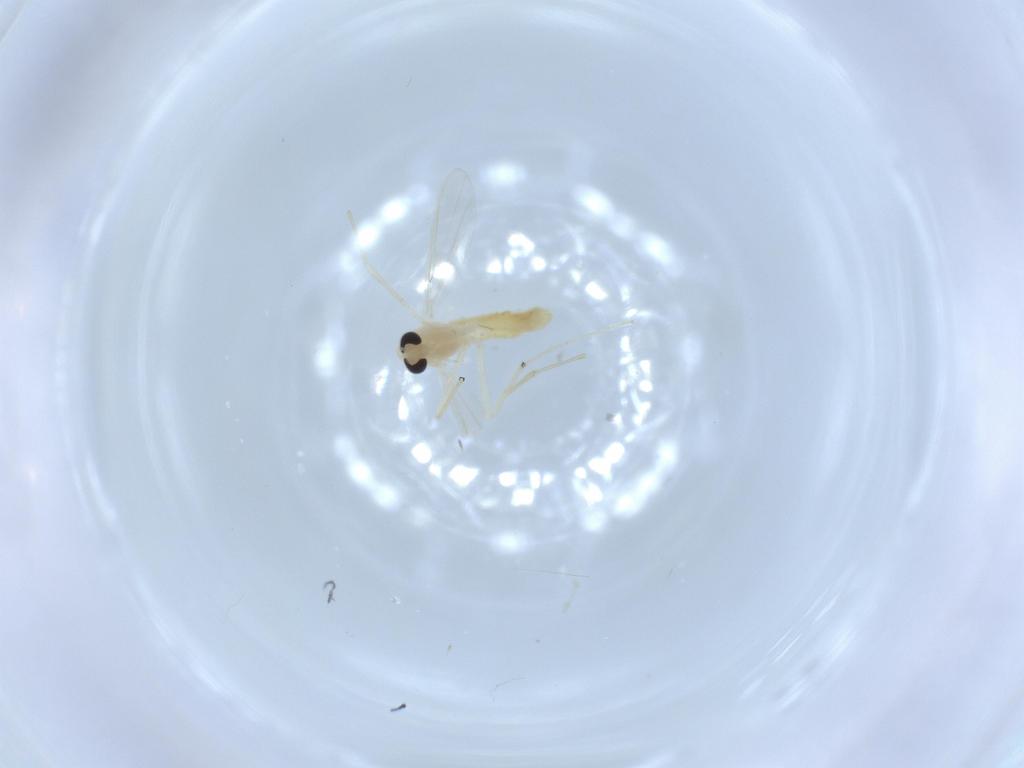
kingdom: Animalia
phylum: Arthropoda
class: Insecta
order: Diptera
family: Chironomidae
